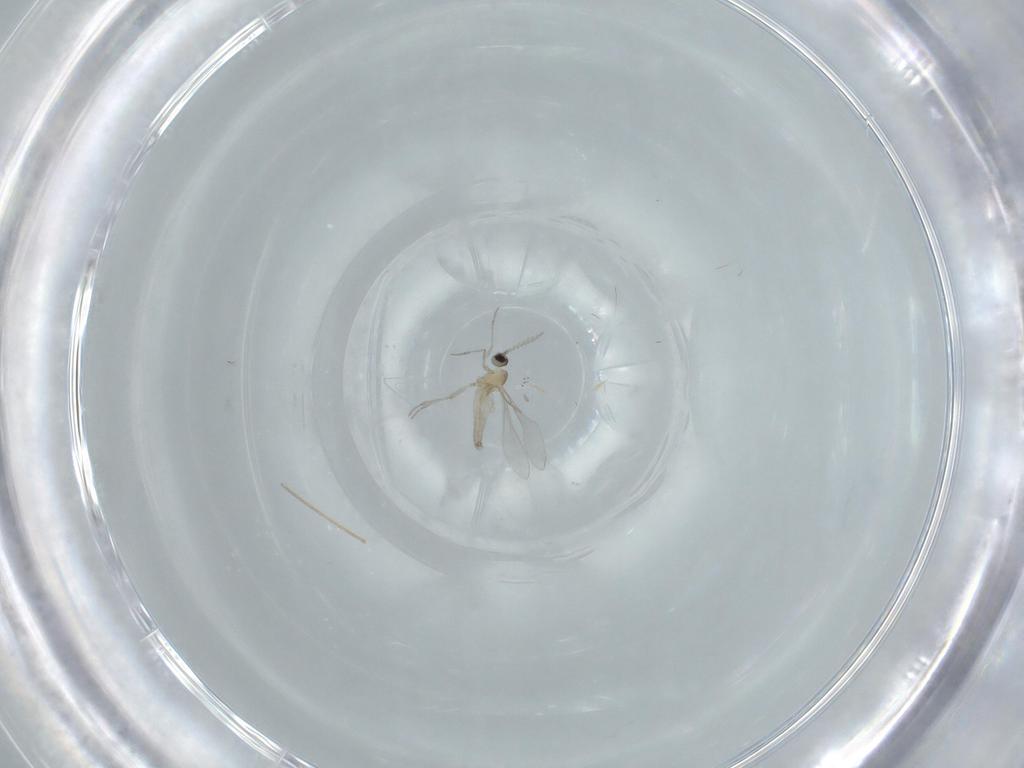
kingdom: Animalia
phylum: Arthropoda
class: Insecta
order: Diptera
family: Cecidomyiidae
